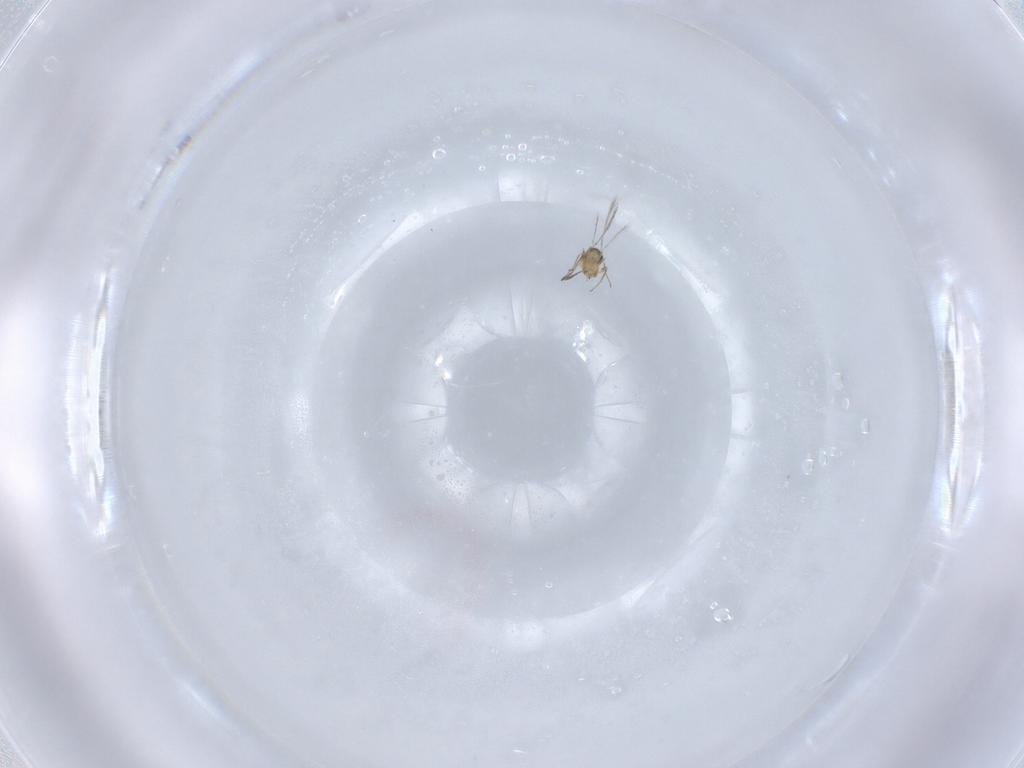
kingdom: Animalia
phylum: Arthropoda
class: Insecta
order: Hymenoptera
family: Mymaridae
